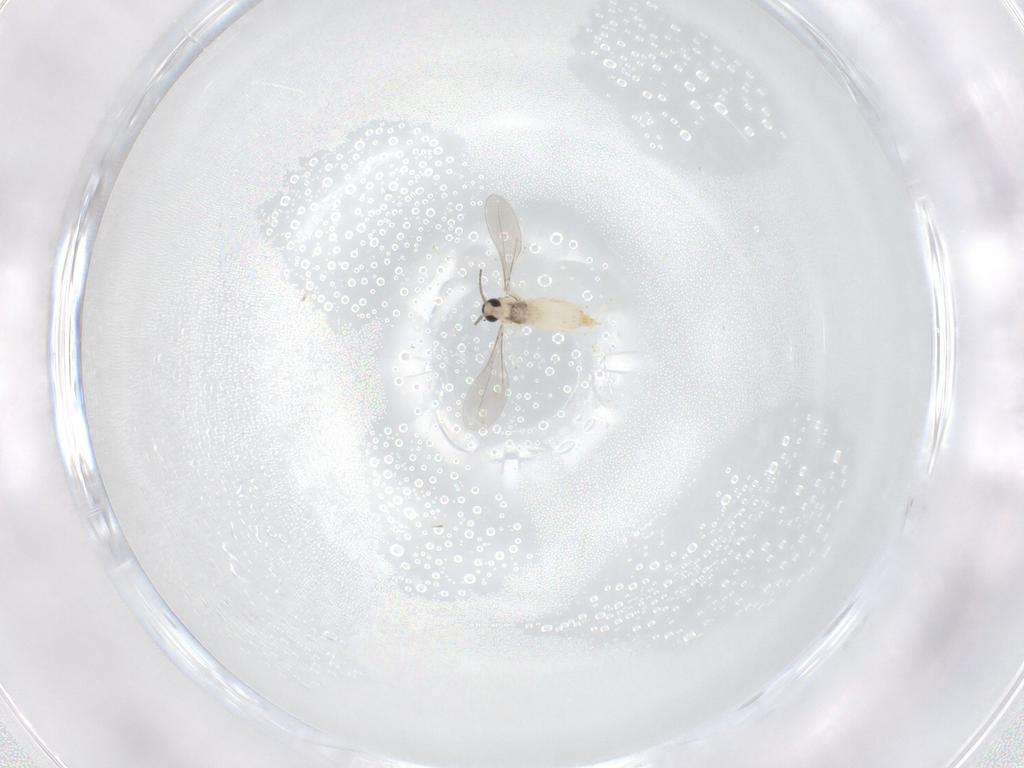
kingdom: Animalia
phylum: Arthropoda
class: Insecta
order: Diptera
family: Cecidomyiidae
